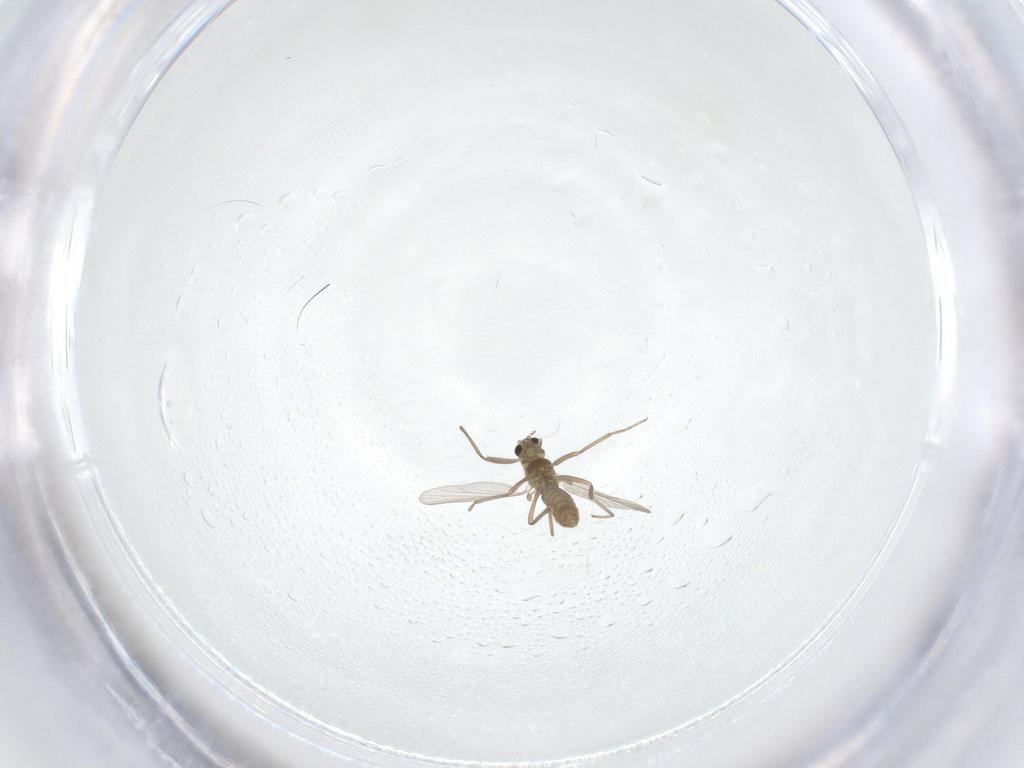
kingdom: Animalia
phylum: Arthropoda
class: Insecta
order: Diptera
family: Chironomidae
